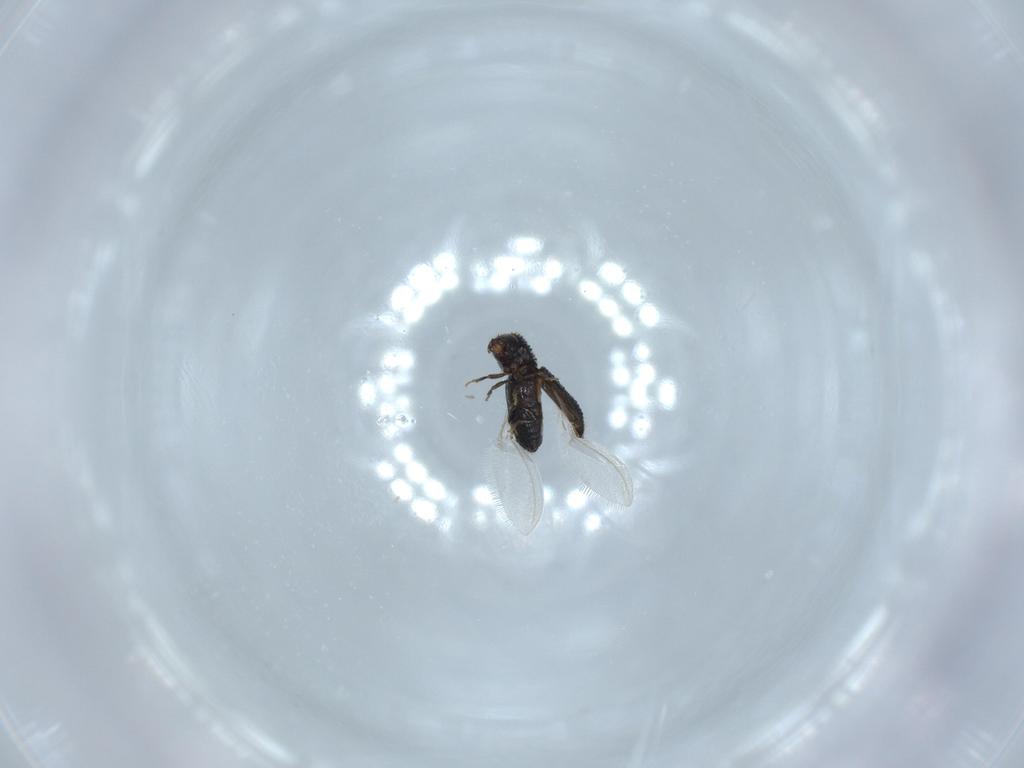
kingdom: Animalia
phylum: Arthropoda
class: Insecta
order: Coleoptera
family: Curculionidae
